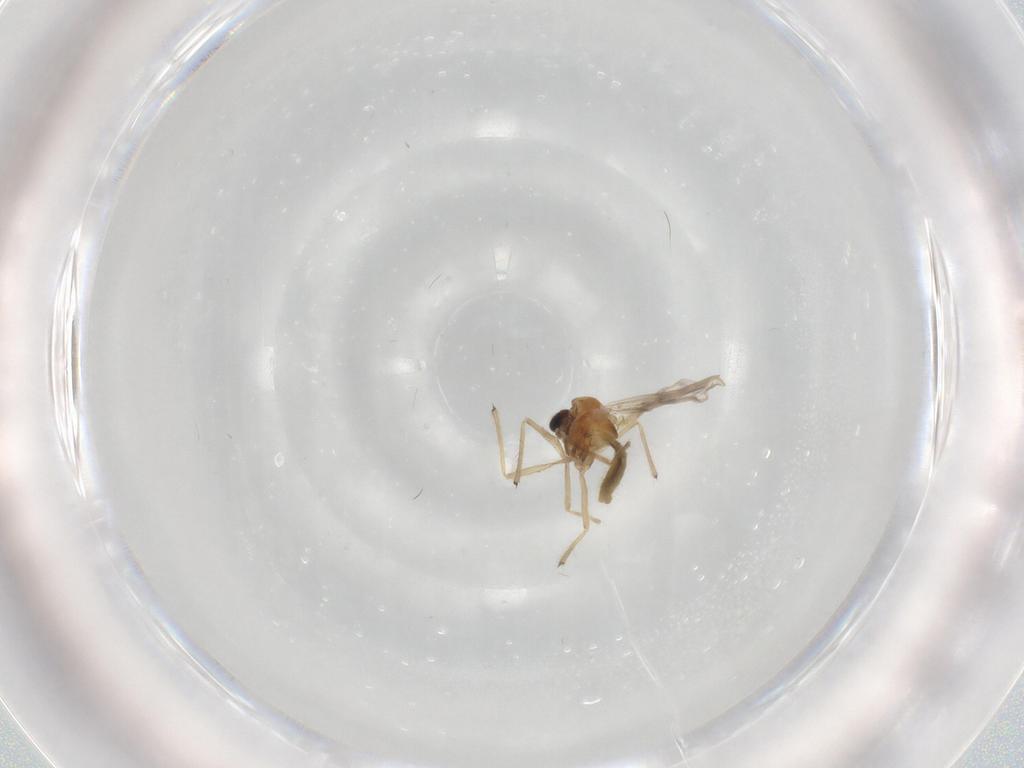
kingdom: Animalia
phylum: Arthropoda
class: Insecta
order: Diptera
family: Chironomidae
